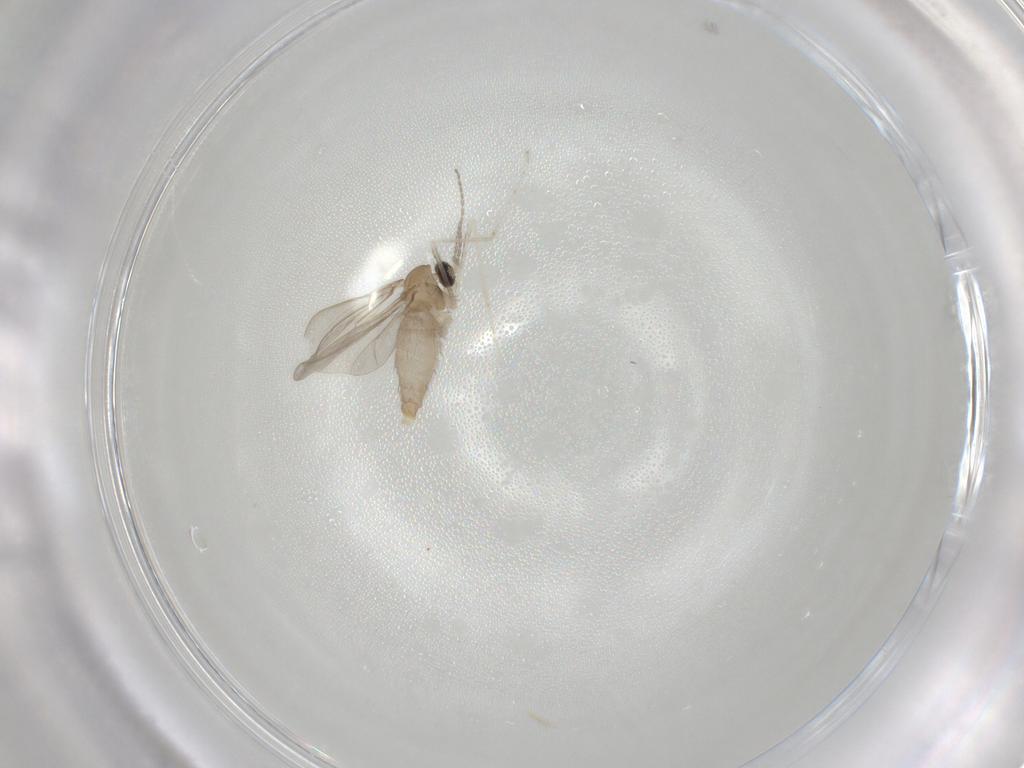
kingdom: Animalia
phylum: Arthropoda
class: Insecta
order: Diptera
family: Cecidomyiidae
